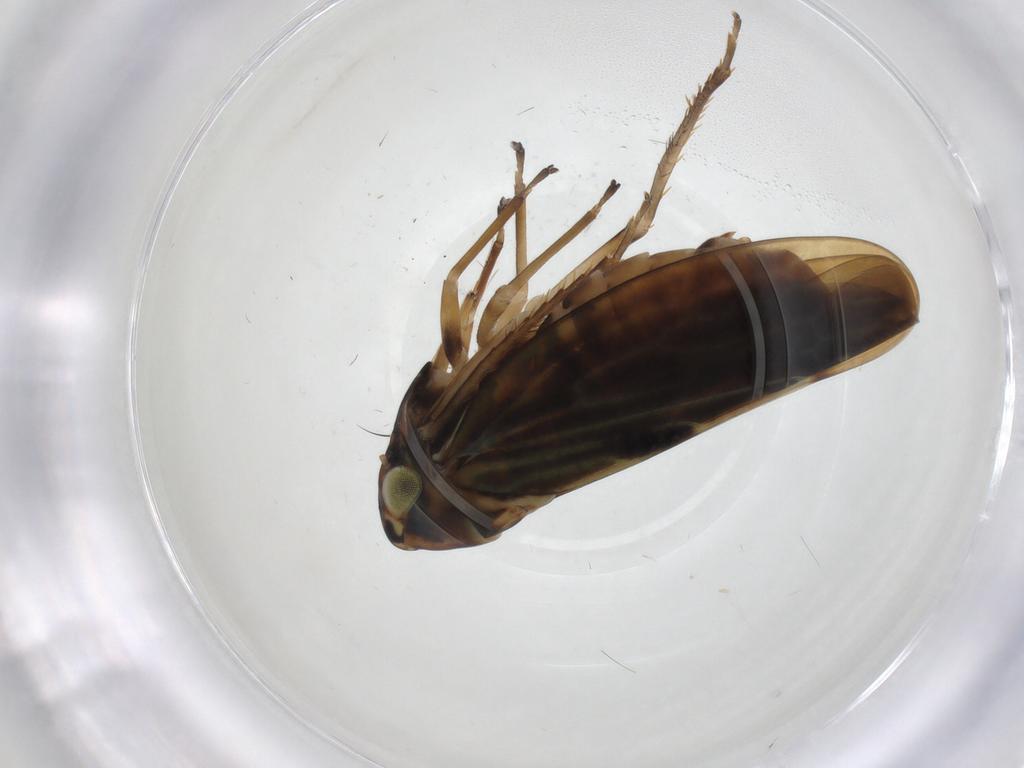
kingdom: Animalia
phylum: Arthropoda
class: Insecta
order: Hemiptera
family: Cicadellidae
